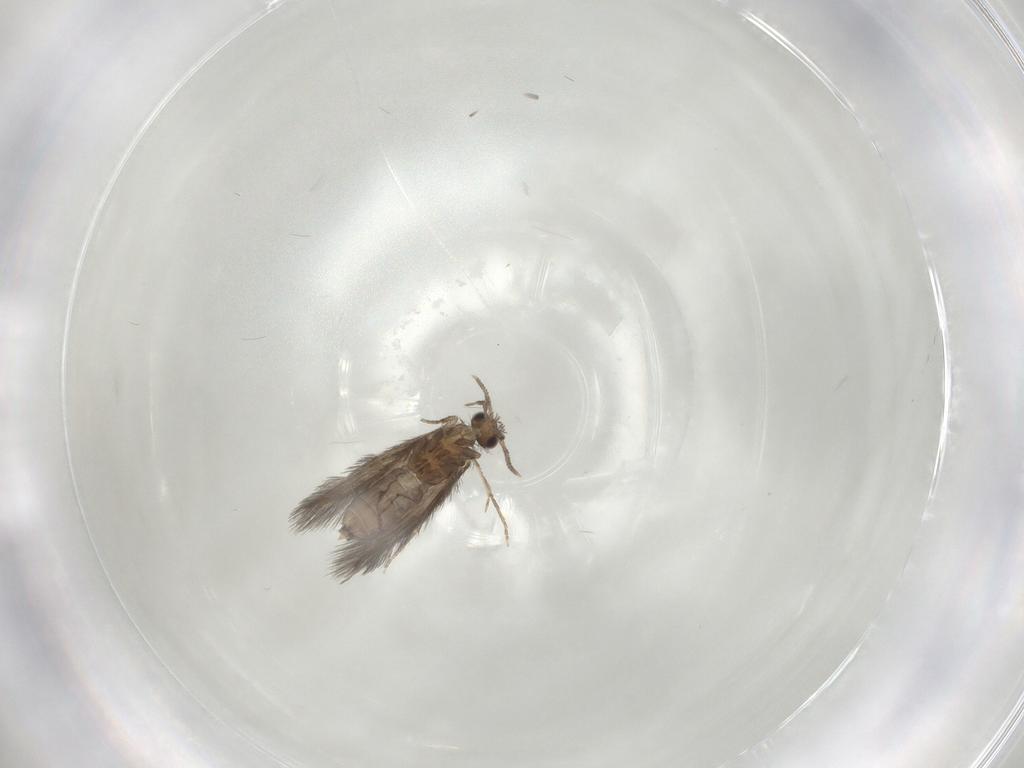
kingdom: Animalia
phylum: Arthropoda
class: Insecta
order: Trichoptera
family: Hydroptilidae
